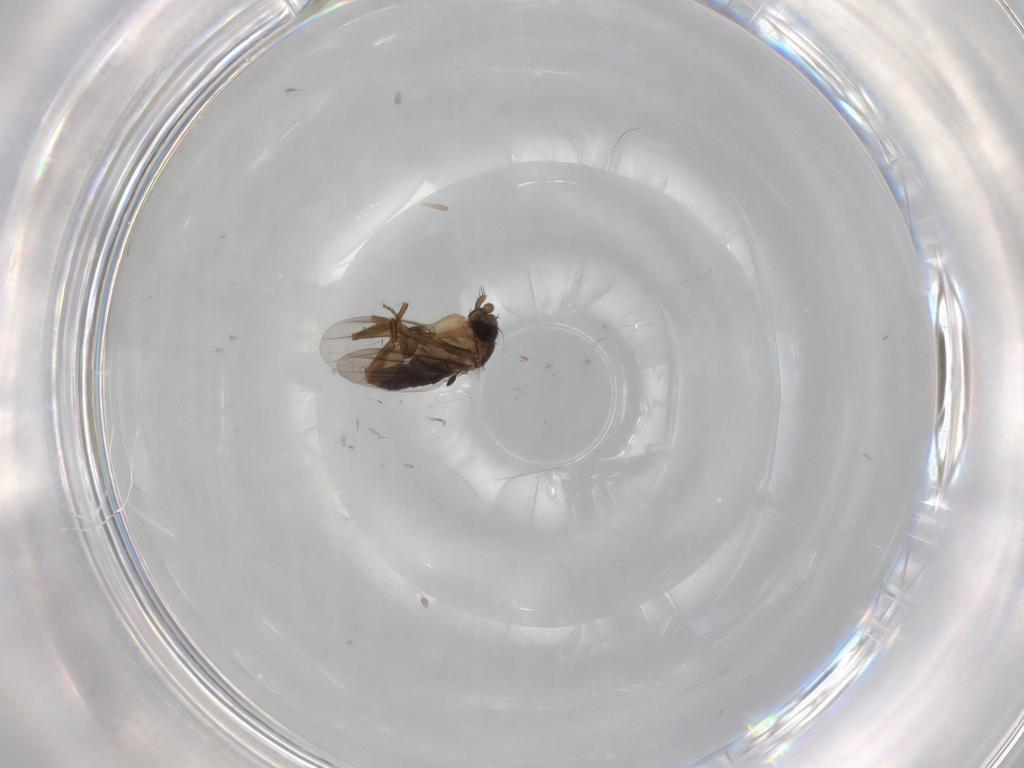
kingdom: Animalia
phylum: Arthropoda
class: Insecta
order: Diptera
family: Phoridae
